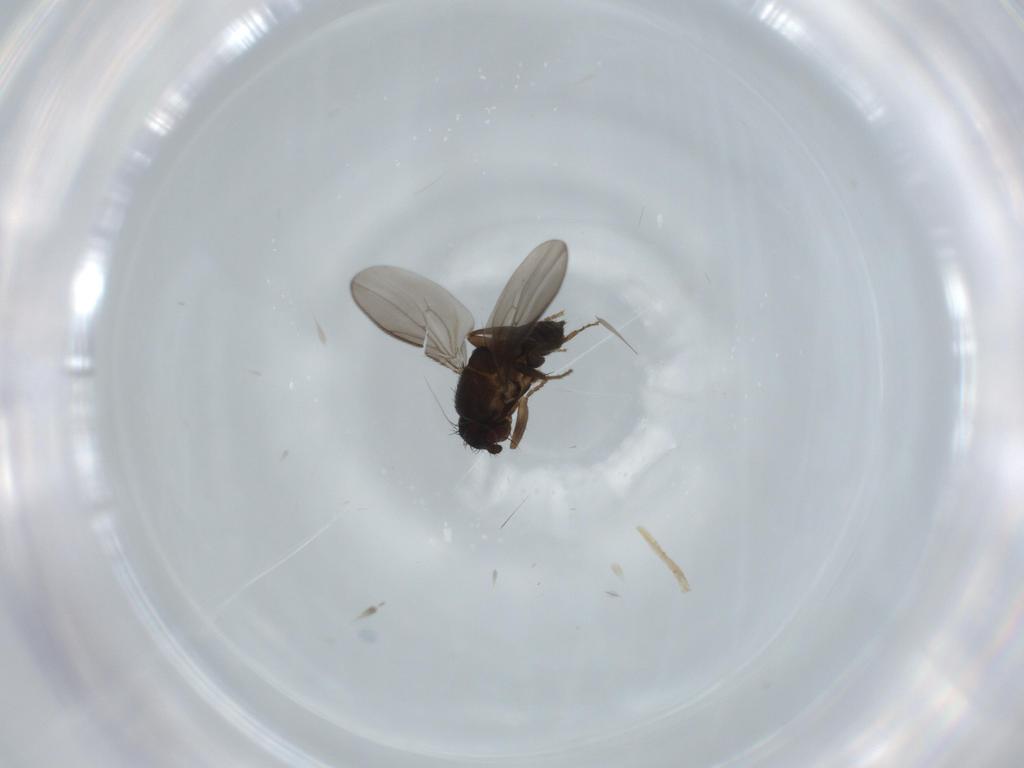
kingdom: Animalia
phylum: Arthropoda
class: Insecta
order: Diptera
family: Sphaeroceridae
